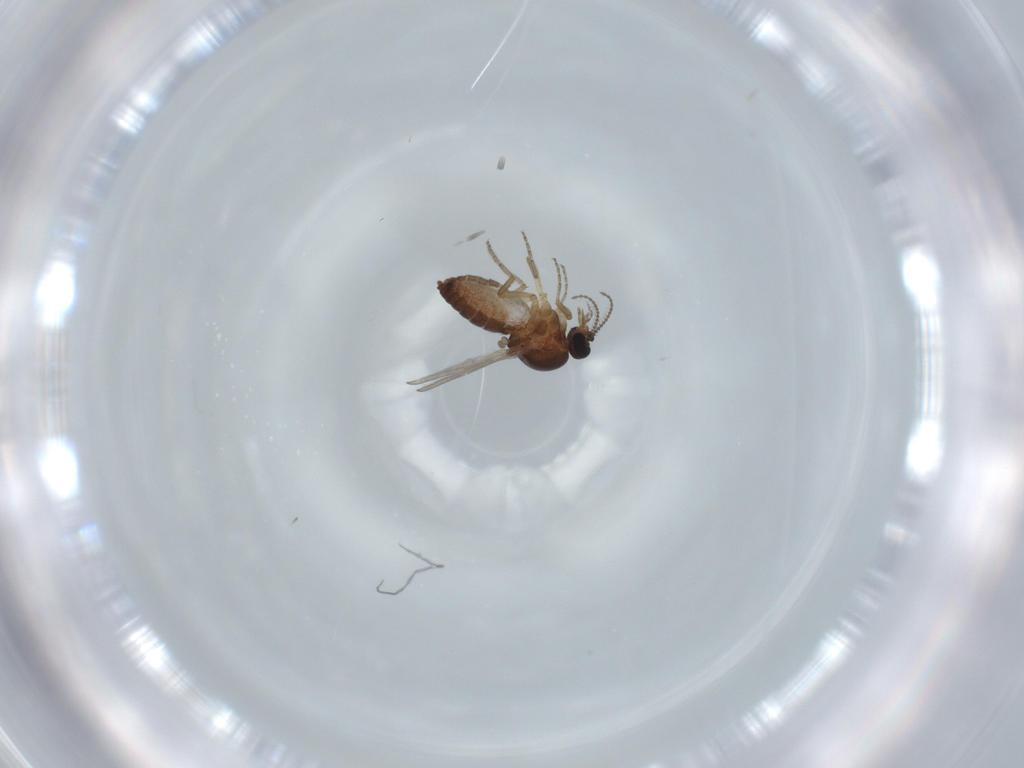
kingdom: Animalia
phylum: Arthropoda
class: Insecta
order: Diptera
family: Ceratopogonidae
